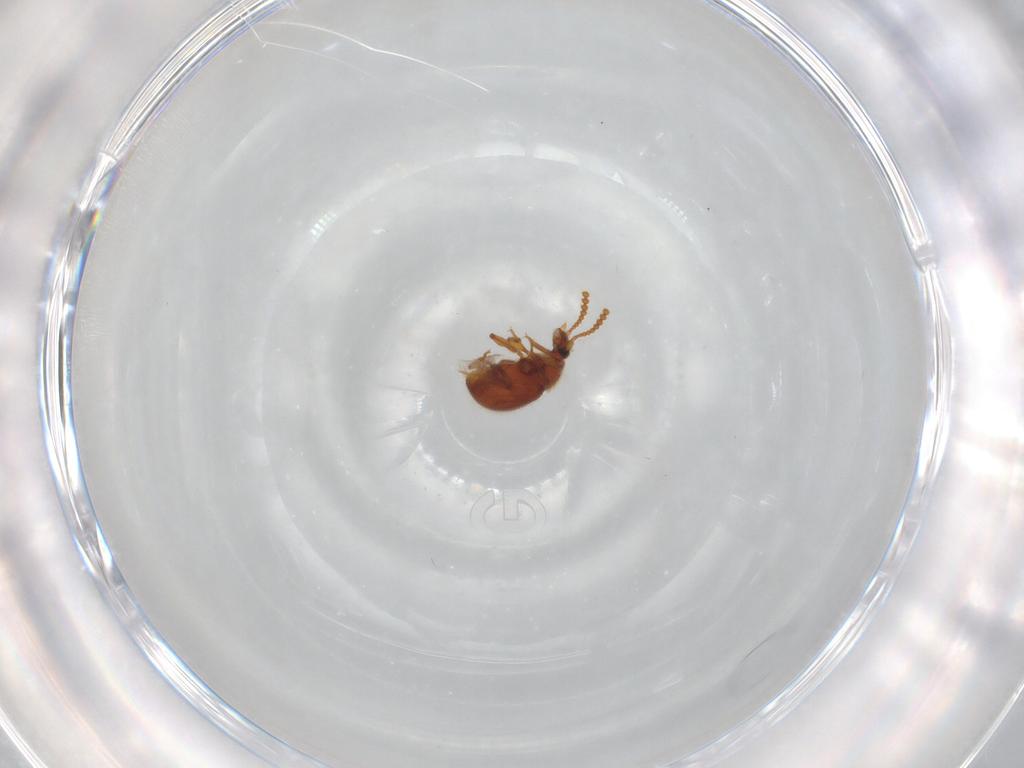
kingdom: Animalia
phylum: Arthropoda
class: Insecta
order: Coleoptera
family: Staphylinidae
